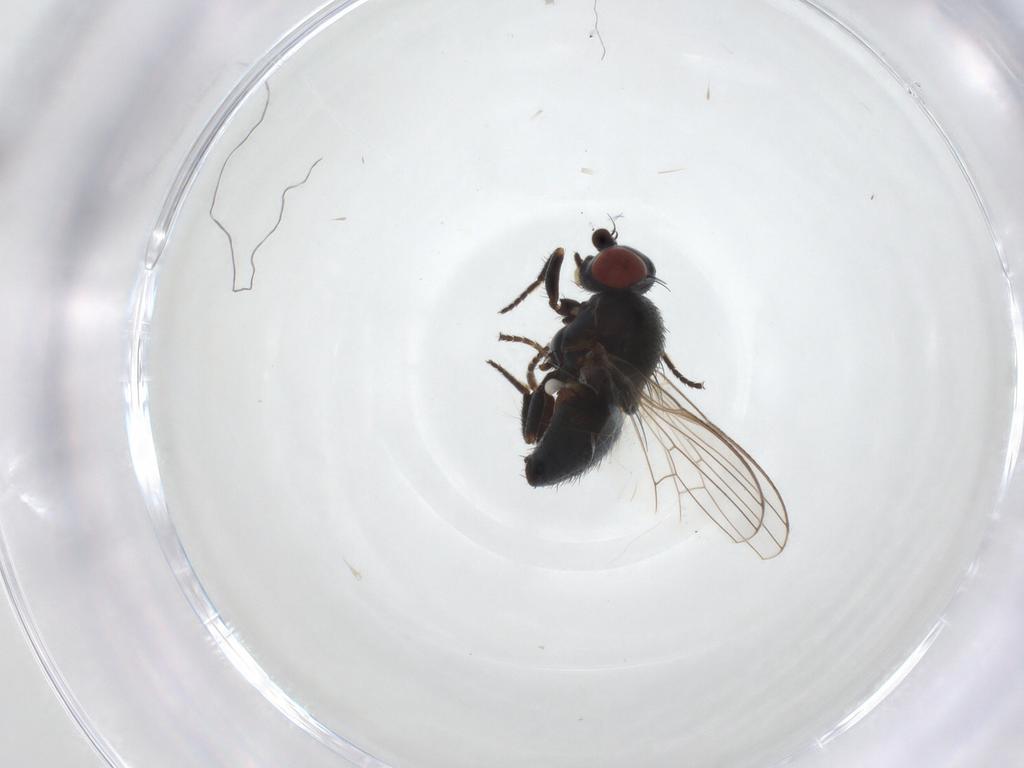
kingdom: Animalia
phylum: Arthropoda
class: Insecta
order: Diptera
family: Chamaemyiidae
